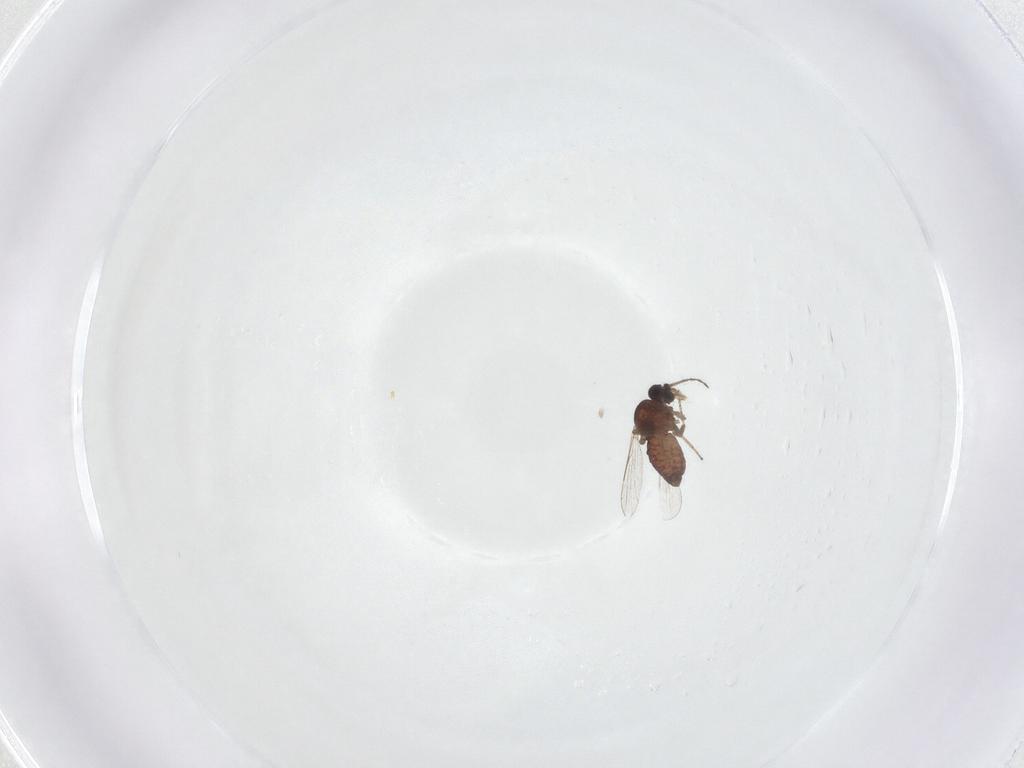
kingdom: Animalia
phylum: Arthropoda
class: Insecta
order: Diptera
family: Ceratopogonidae
